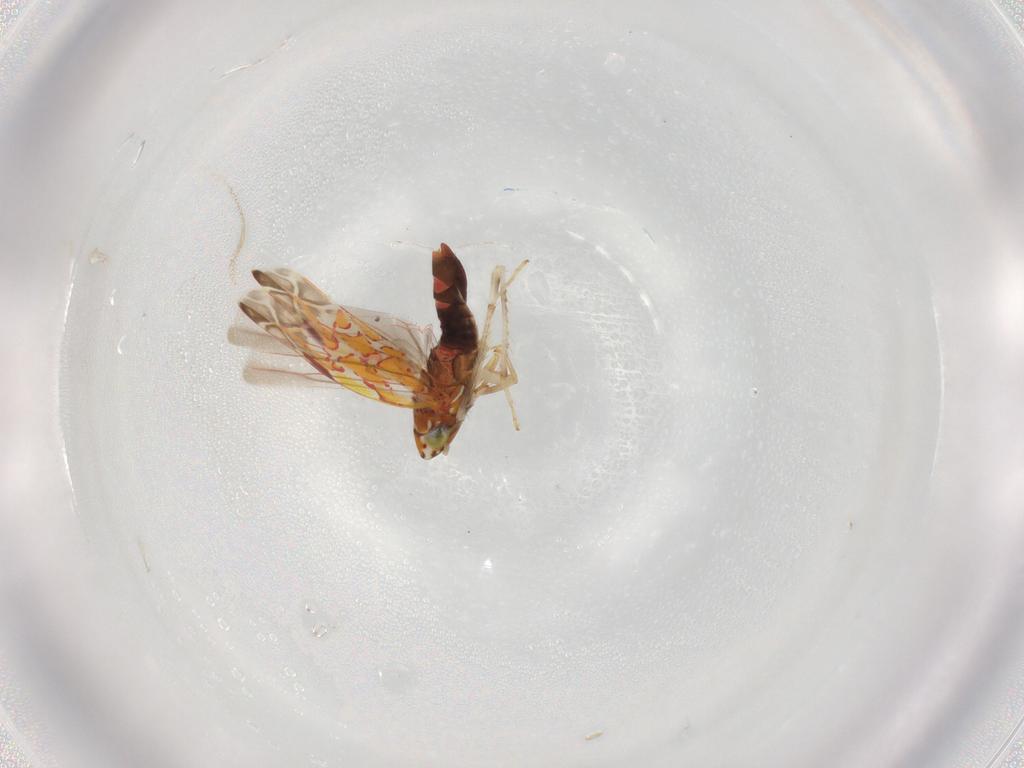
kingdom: Animalia
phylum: Arthropoda
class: Insecta
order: Hemiptera
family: Cicadellidae
